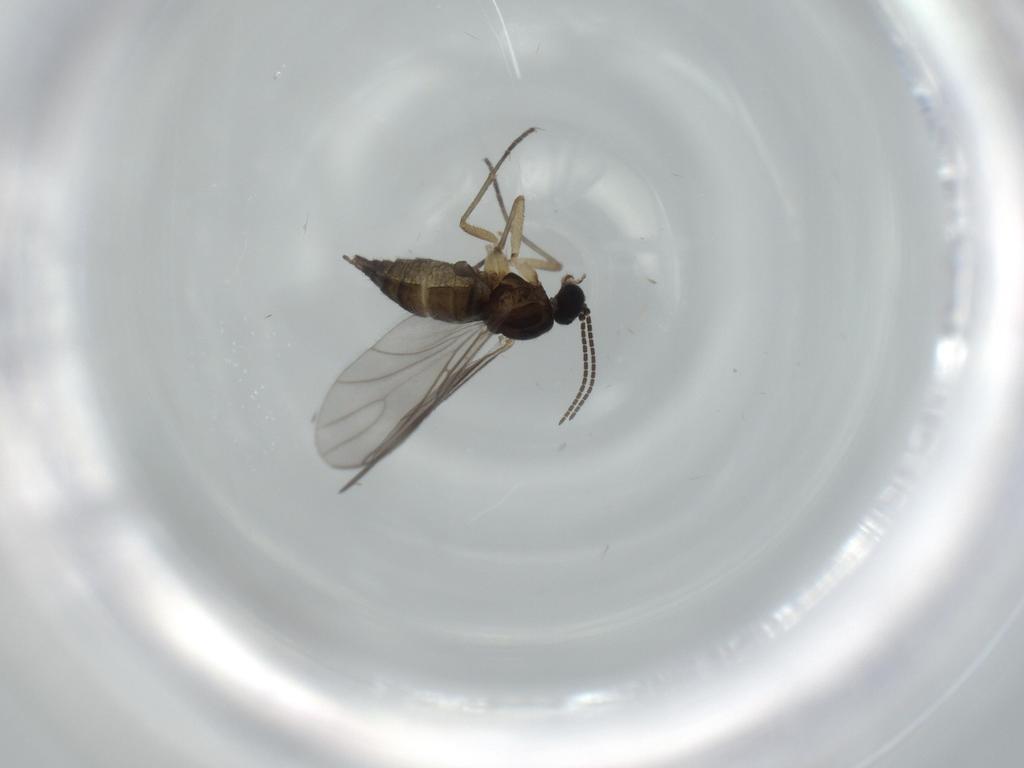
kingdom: Animalia
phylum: Arthropoda
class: Insecta
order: Diptera
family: Sciaridae
